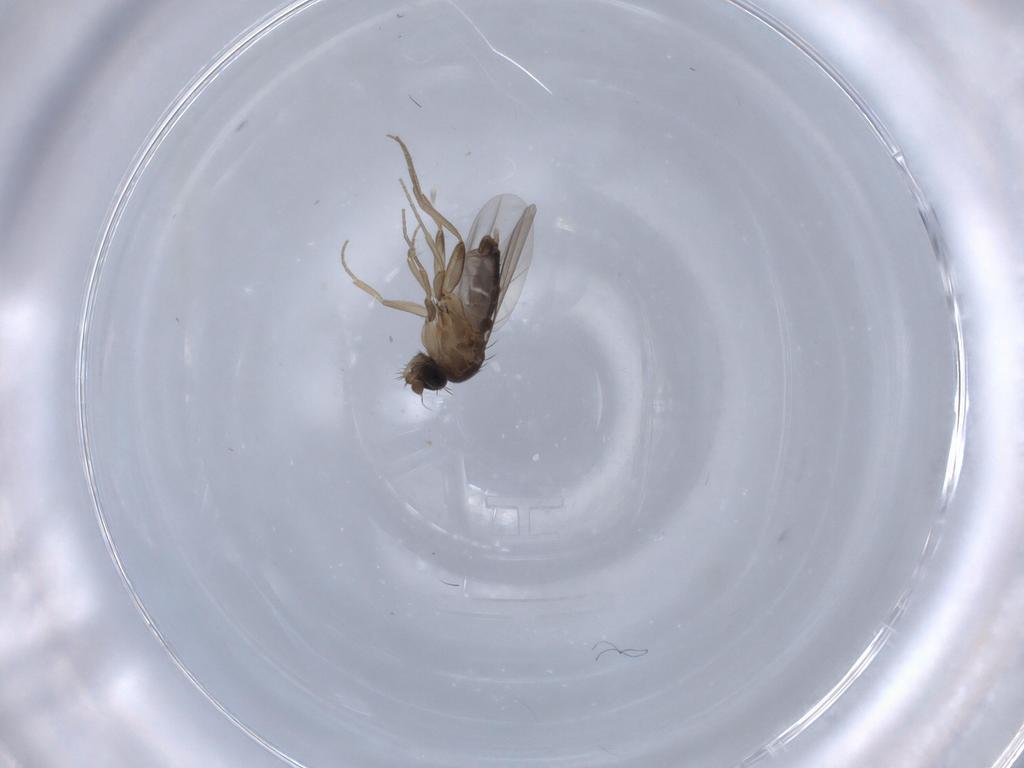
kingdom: Animalia
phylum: Arthropoda
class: Insecta
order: Diptera
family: Phoridae
